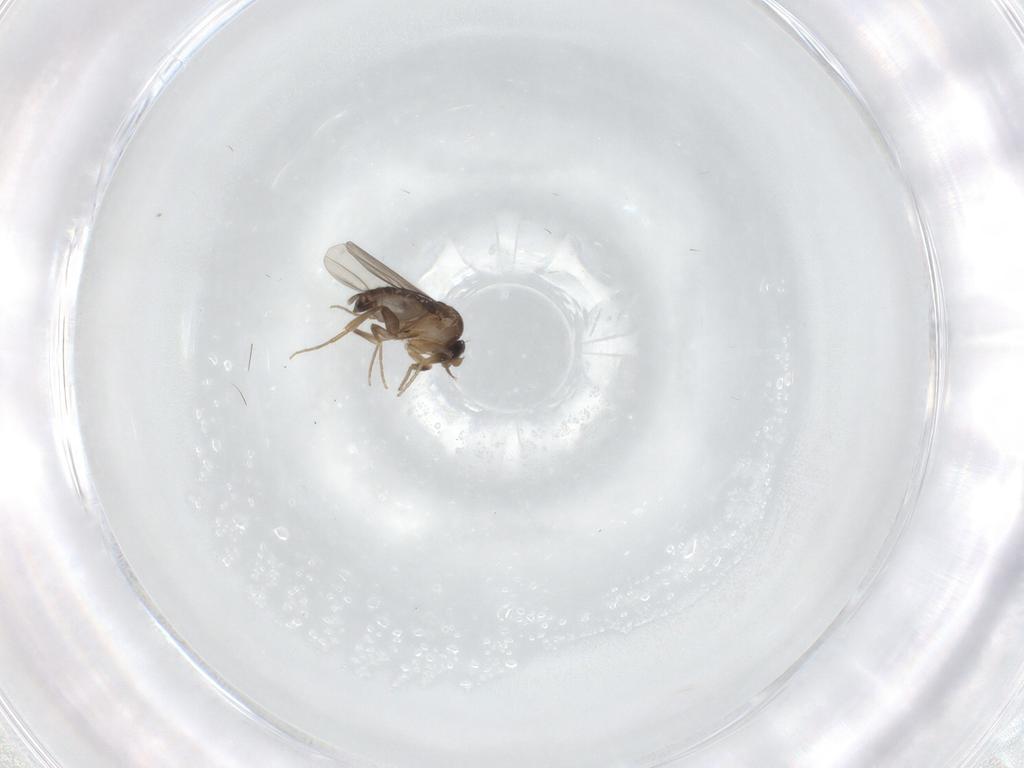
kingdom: Animalia
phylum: Arthropoda
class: Insecta
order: Diptera
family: Phoridae
